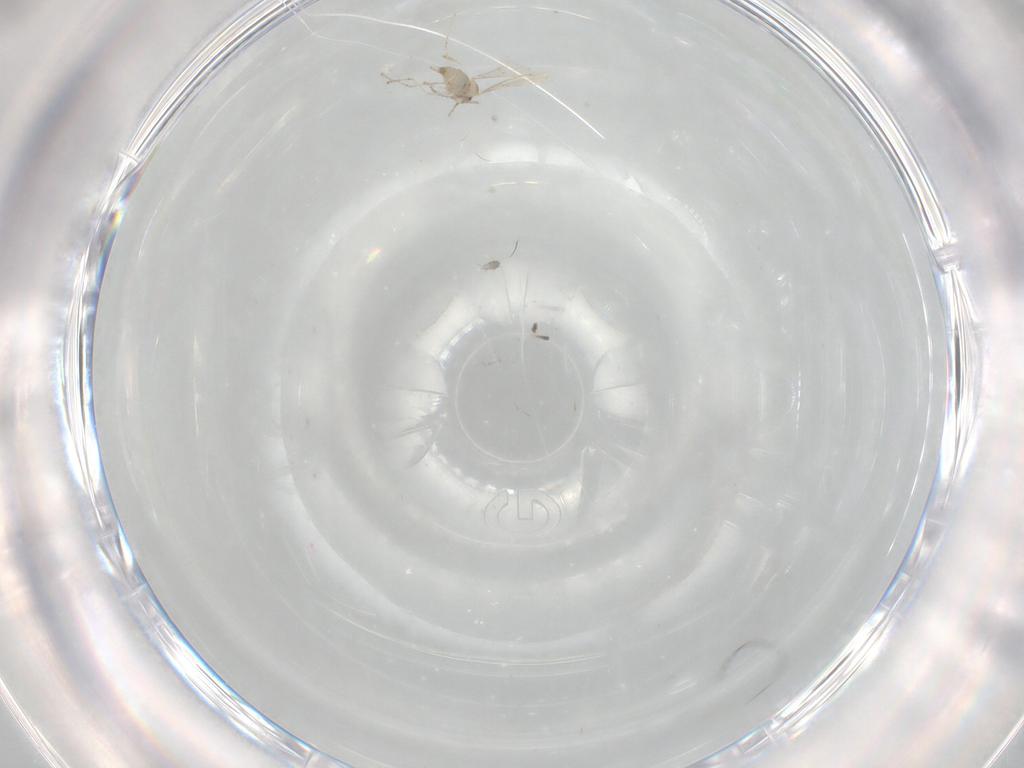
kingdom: Animalia
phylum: Arthropoda
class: Insecta
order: Diptera
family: Cecidomyiidae
